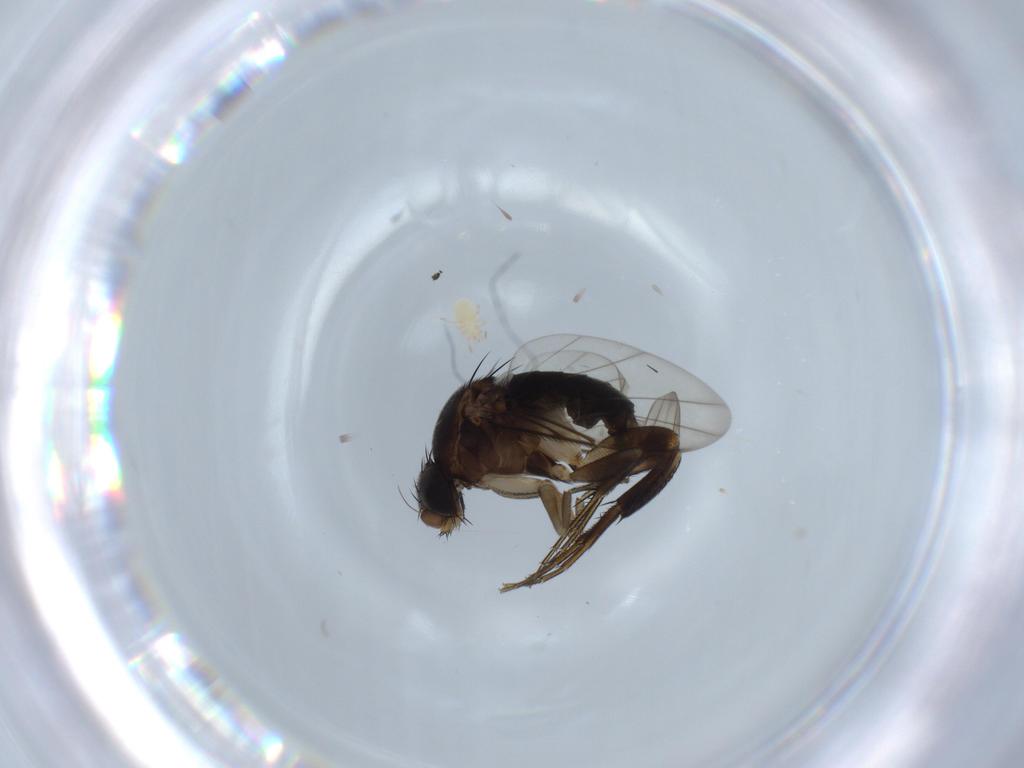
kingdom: Animalia
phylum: Arthropoda
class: Insecta
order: Diptera
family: Phoridae
